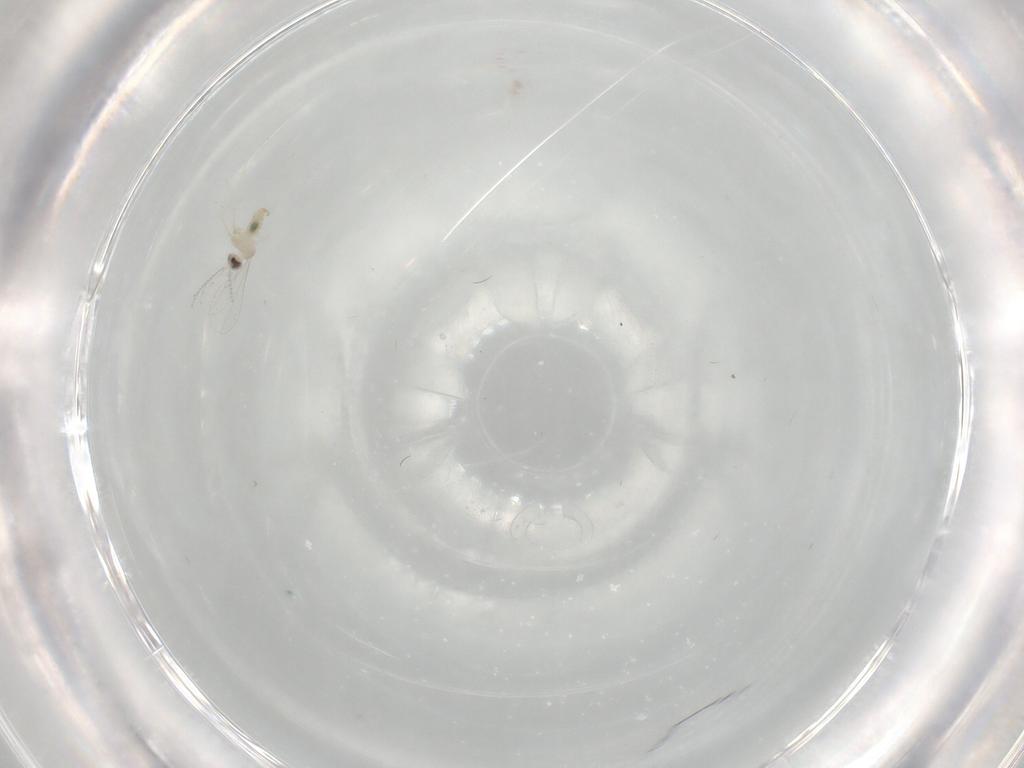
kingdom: Animalia
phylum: Arthropoda
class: Insecta
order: Diptera
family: Cecidomyiidae
